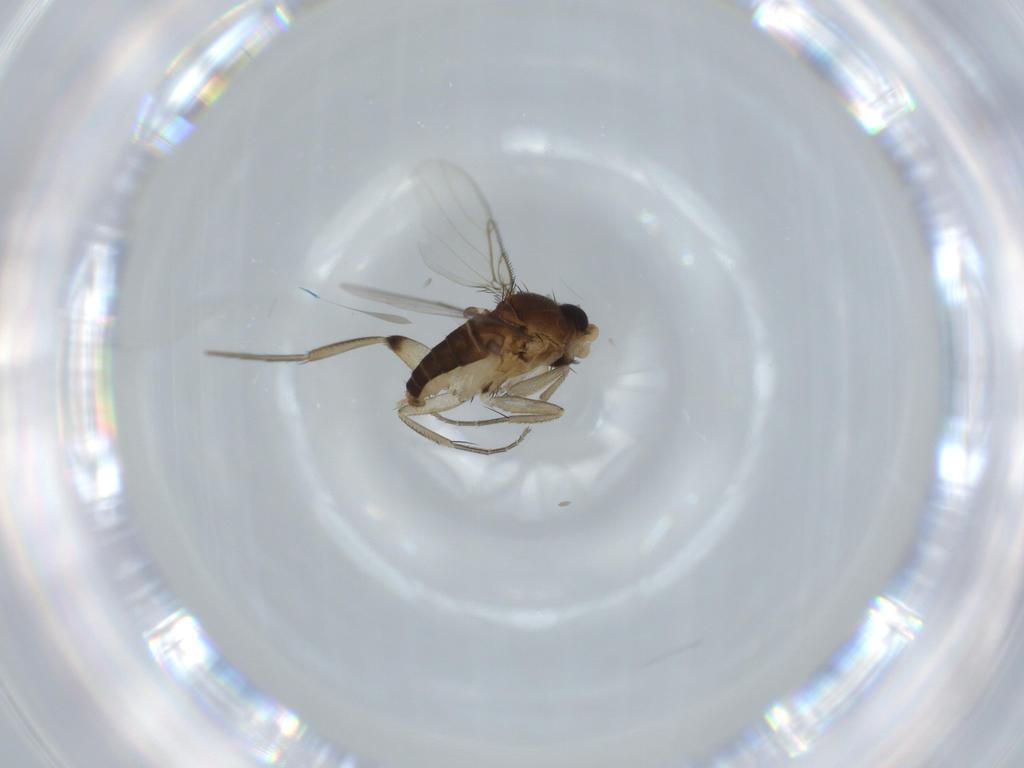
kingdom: Animalia
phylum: Arthropoda
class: Insecta
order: Diptera
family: Phoridae
